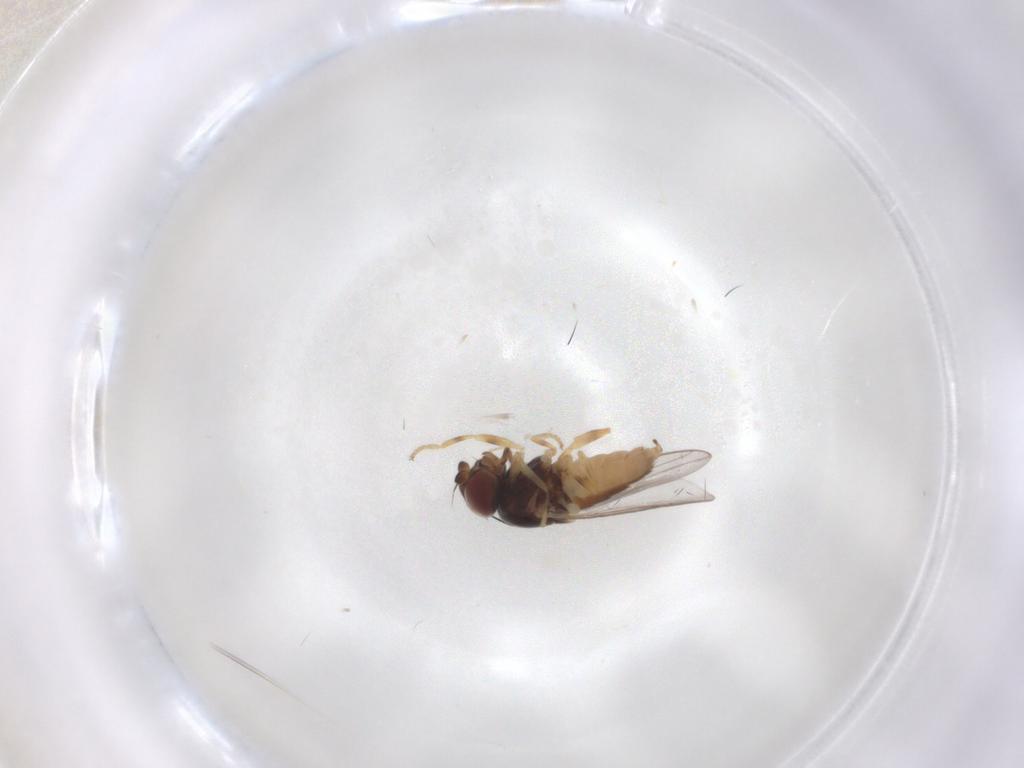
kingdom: Animalia
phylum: Arthropoda
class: Insecta
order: Diptera
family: Chloropidae
